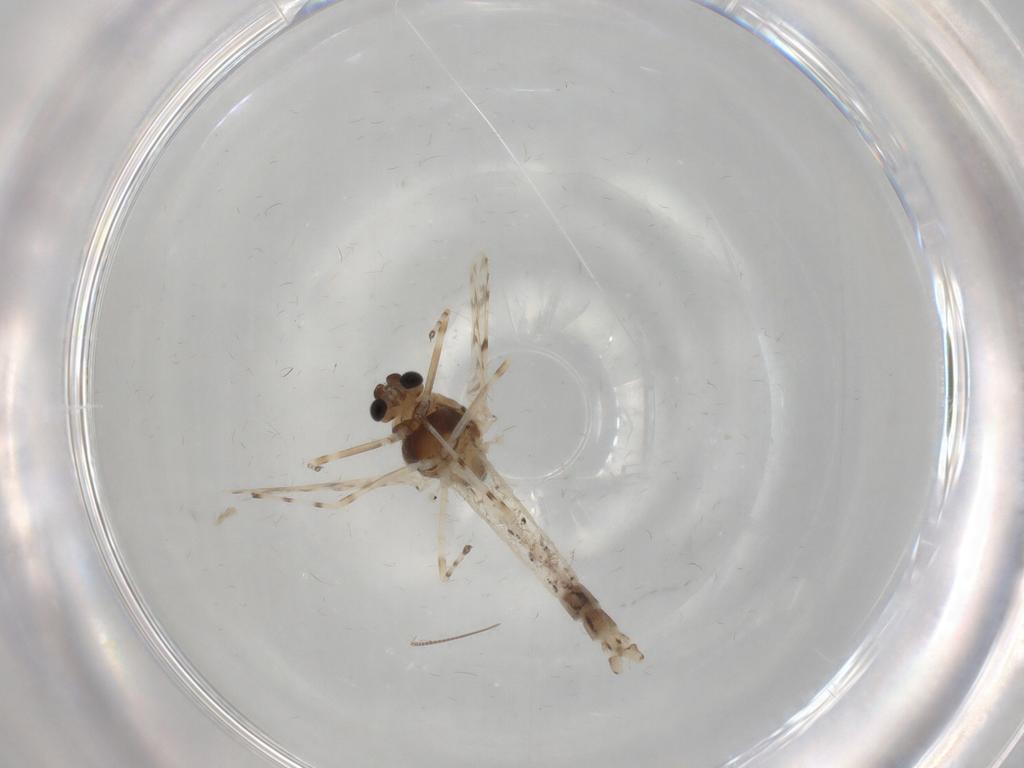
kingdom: Animalia
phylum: Arthropoda
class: Insecta
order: Diptera
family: Chironomidae
